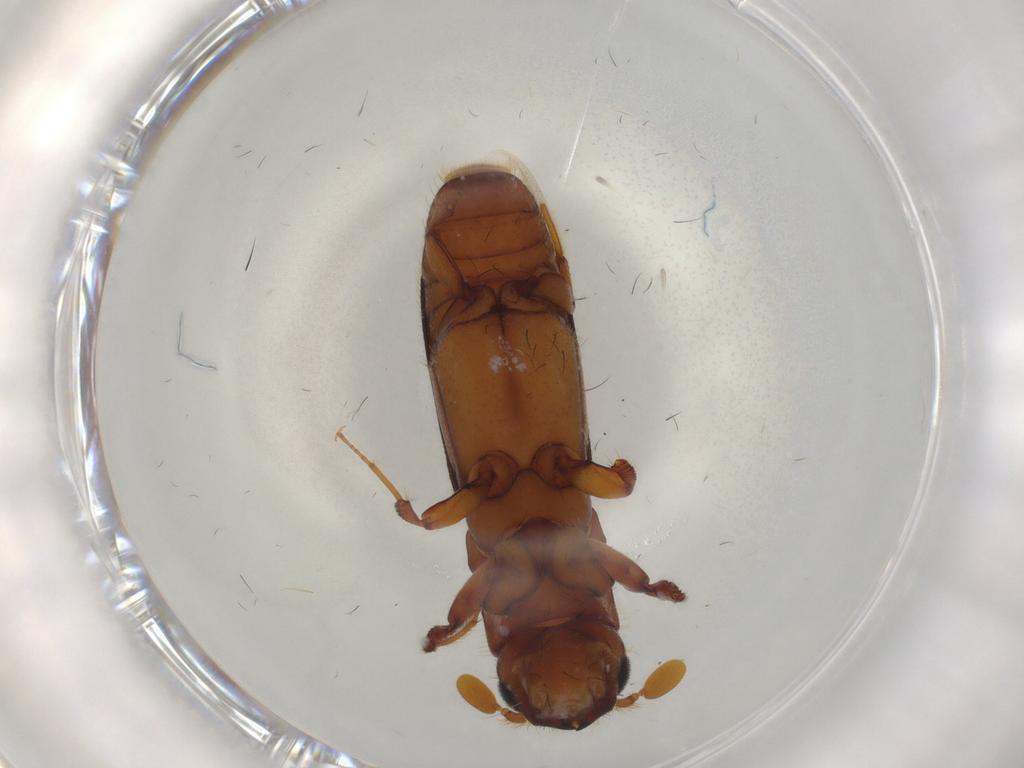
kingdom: Animalia
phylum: Arthropoda
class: Insecta
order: Coleoptera
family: Curculionidae
